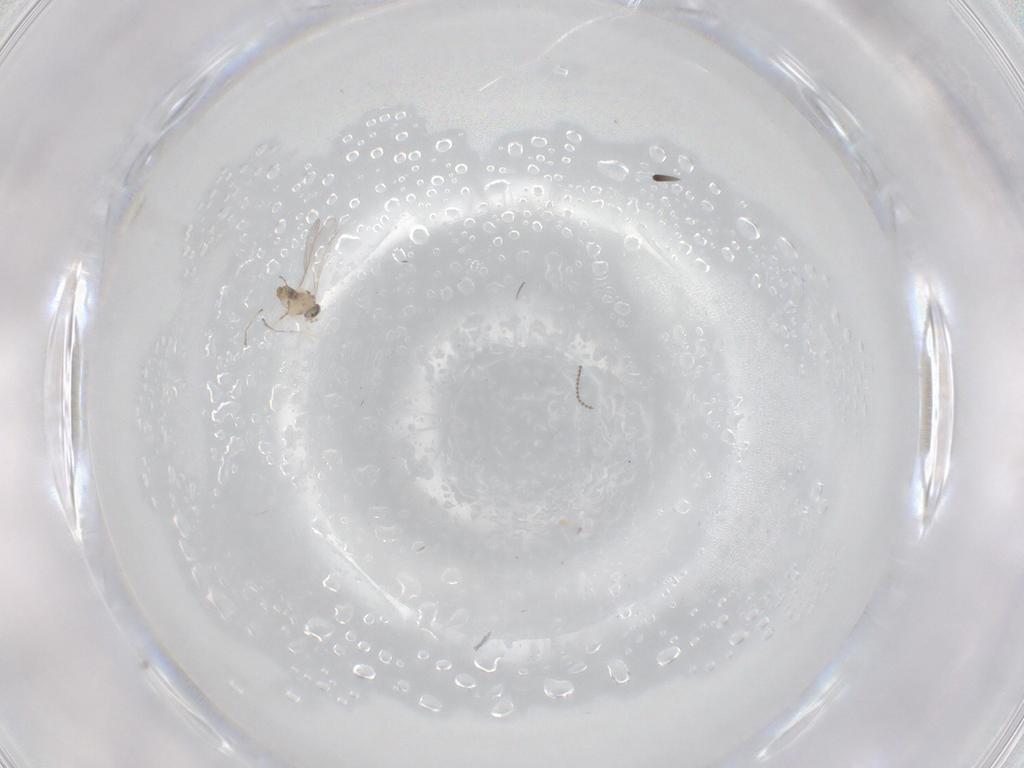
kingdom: Animalia
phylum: Arthropoda
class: Insecta
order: Diptera
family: Cecidomyiidae
